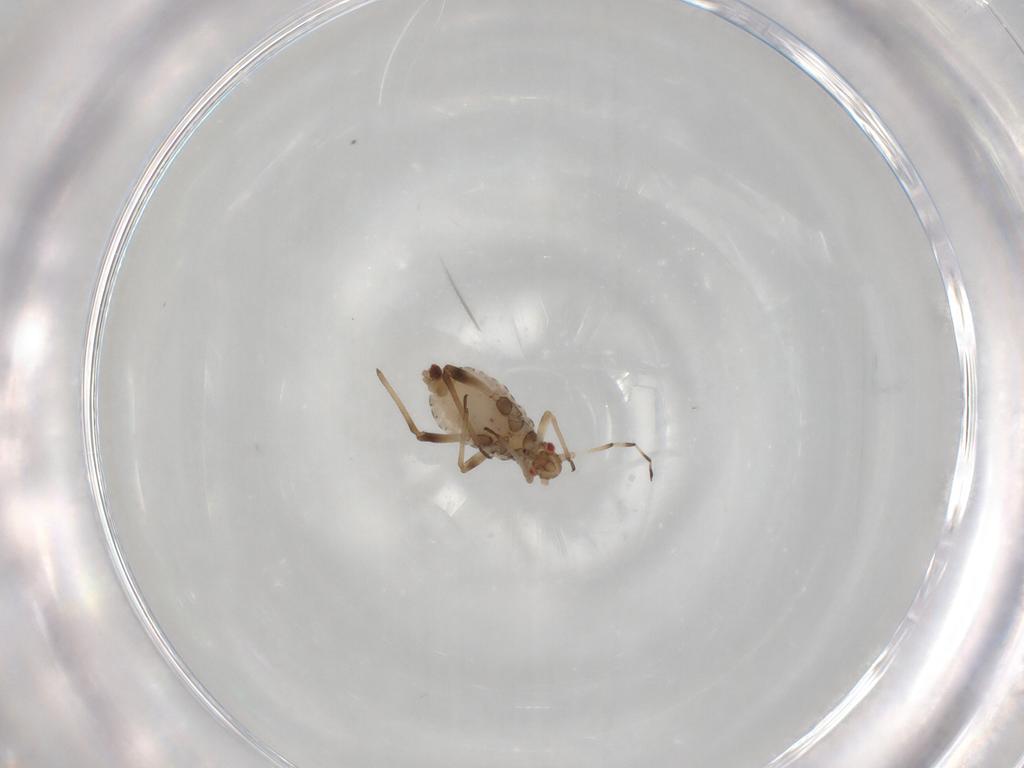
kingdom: Animalia
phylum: Arthropoda
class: Insecta
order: Hemiptera
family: Aphididae
